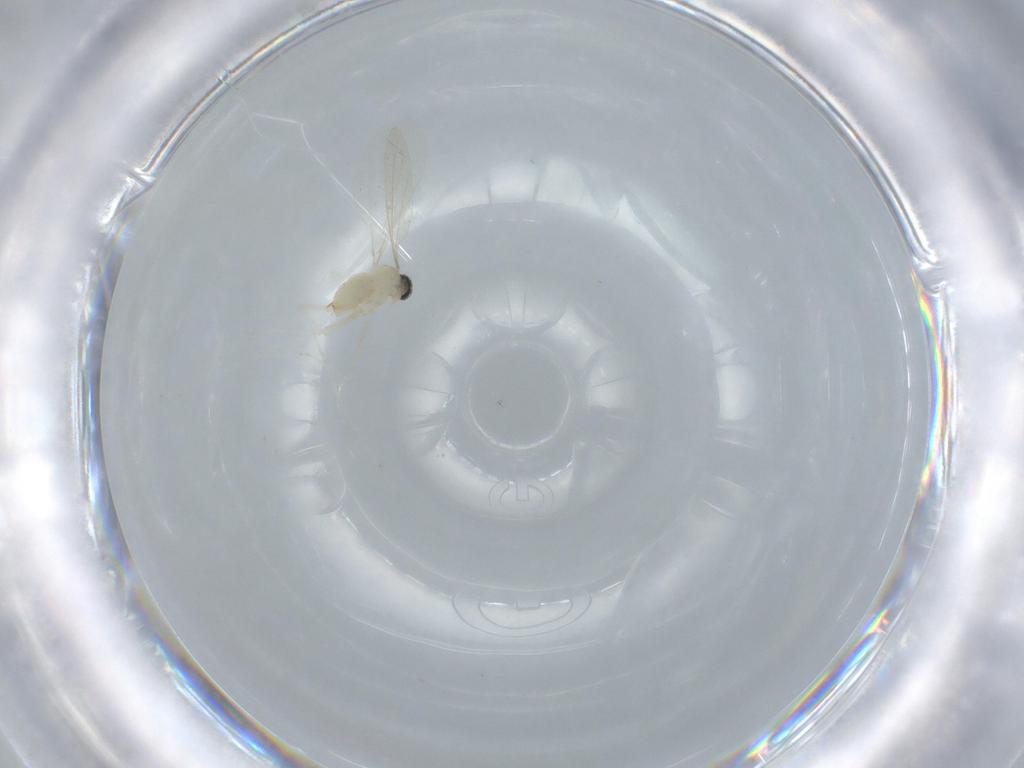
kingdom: Animalia
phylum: Arthropoda
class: Insecta
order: Diptera
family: Cecidomyiidae
